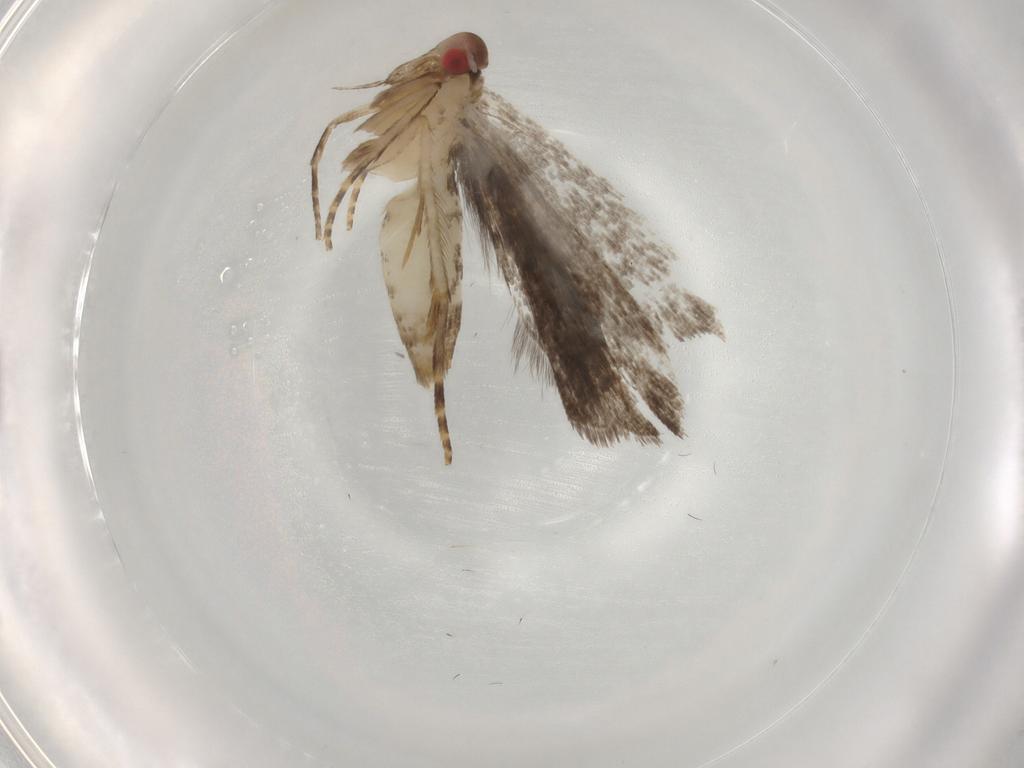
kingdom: Animalia
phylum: Arthropoda
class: Insecta
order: Lepidoptera
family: Gelechiidae
